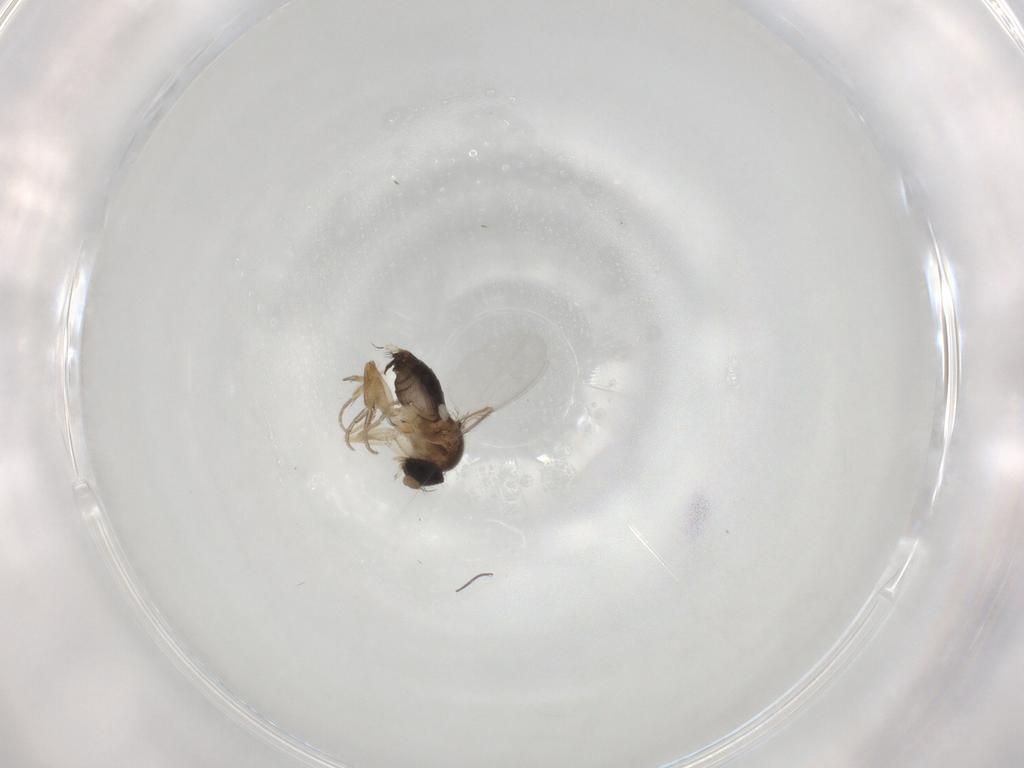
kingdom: Animalia
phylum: Arthropoda
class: Insecta
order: Diptera
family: Phoridae
